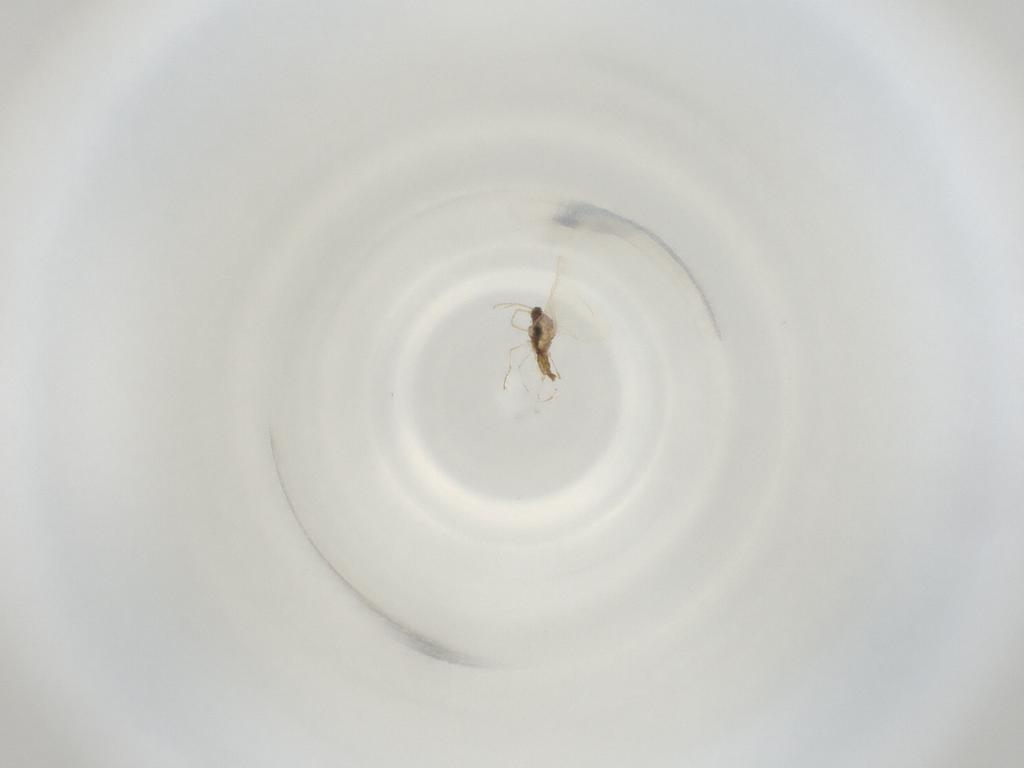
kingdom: Animalia
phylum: Arthropoda
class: Insecta
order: Diptera
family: Cecidomyiidae
